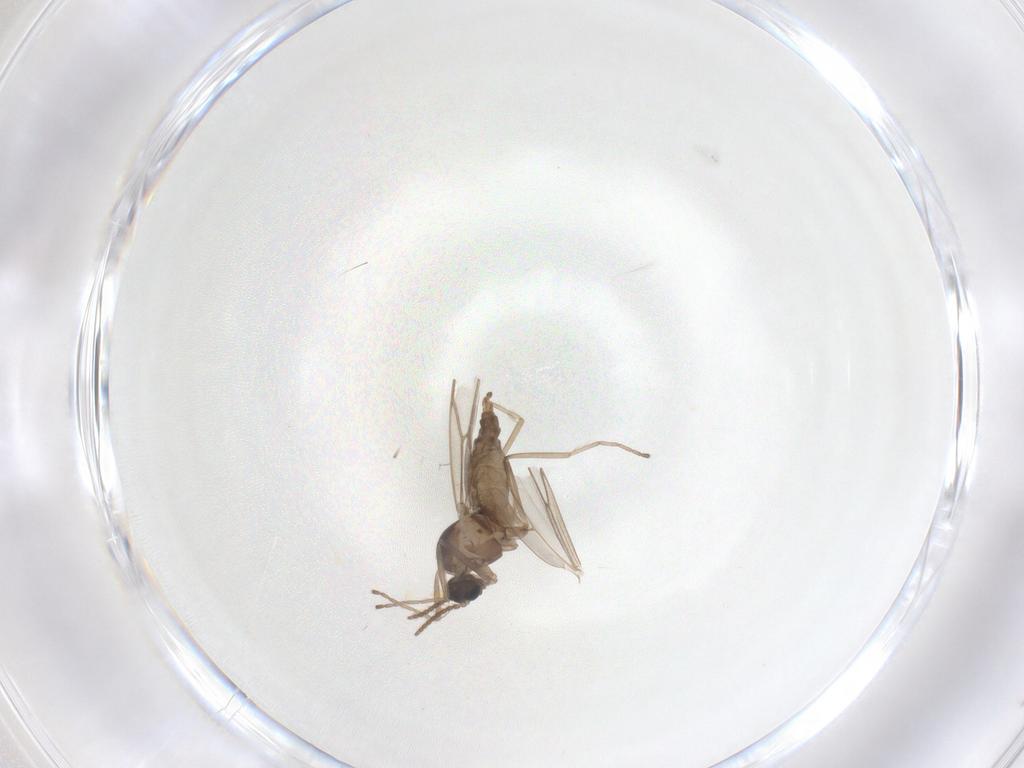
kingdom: Animalia
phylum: Arthropoda
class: Insecta
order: Diptera
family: Cecidomyiidae
